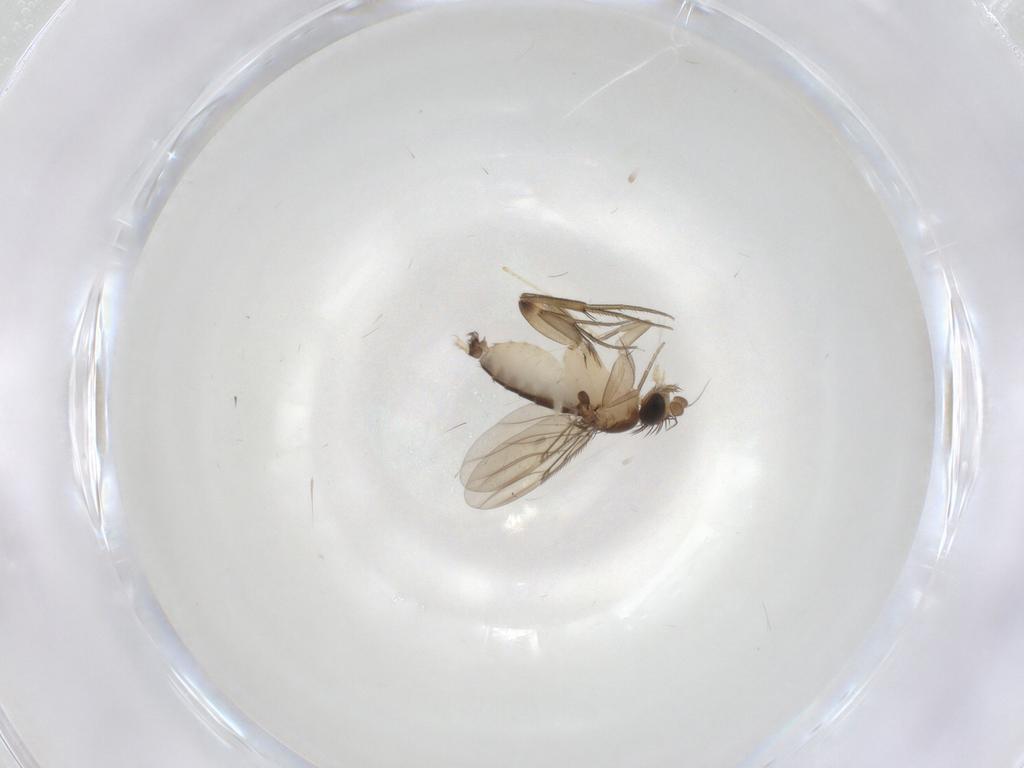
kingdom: Animalia
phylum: Arthropoda
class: Insecta
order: Diptera
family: Phoridae
